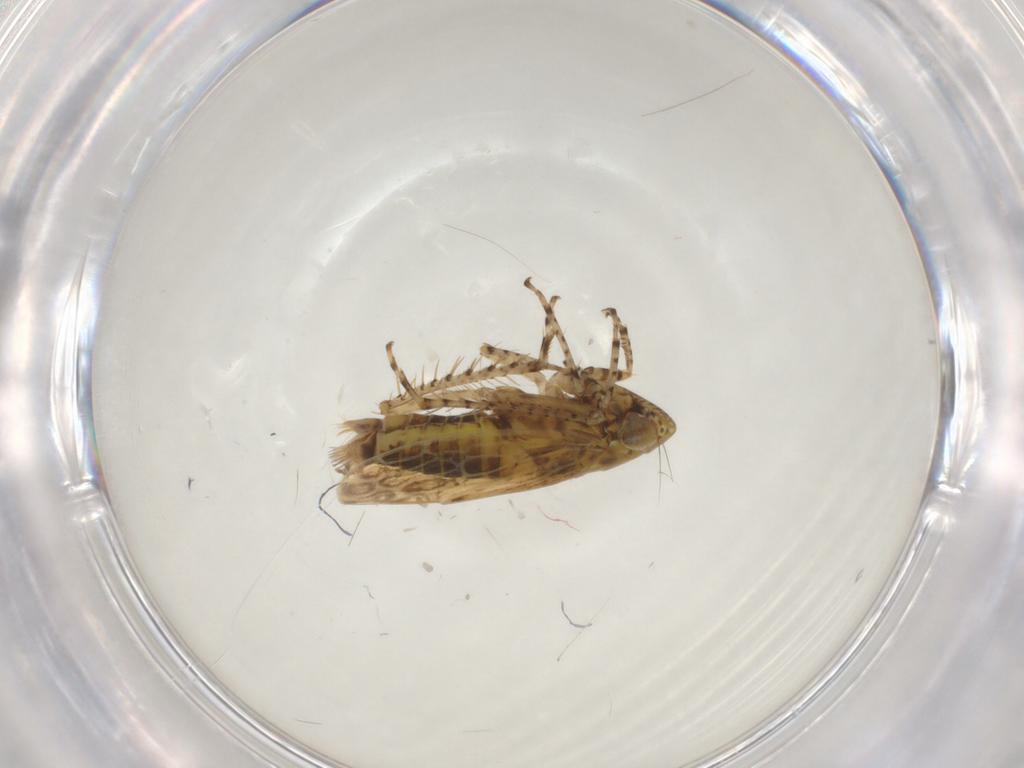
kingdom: Animalia
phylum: Arthropoda
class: Insecta
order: Hemiptera
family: Cicadellidae
